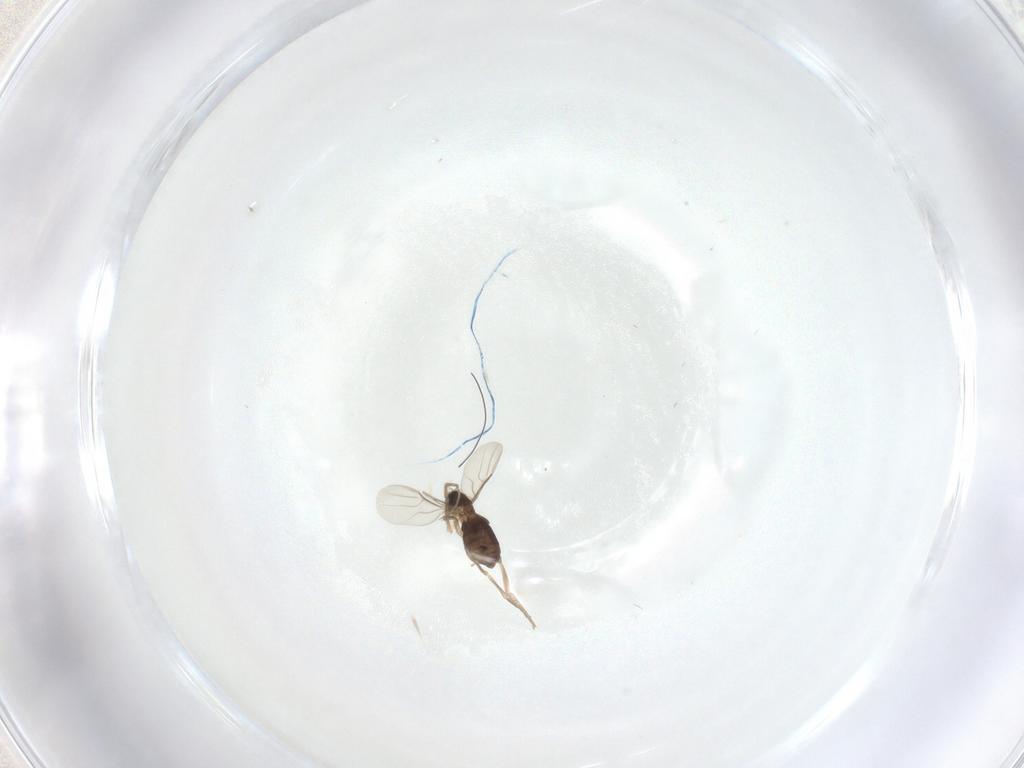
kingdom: Animalia
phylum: Arthropoda
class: Insecta
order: Diptera
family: Phoridae
